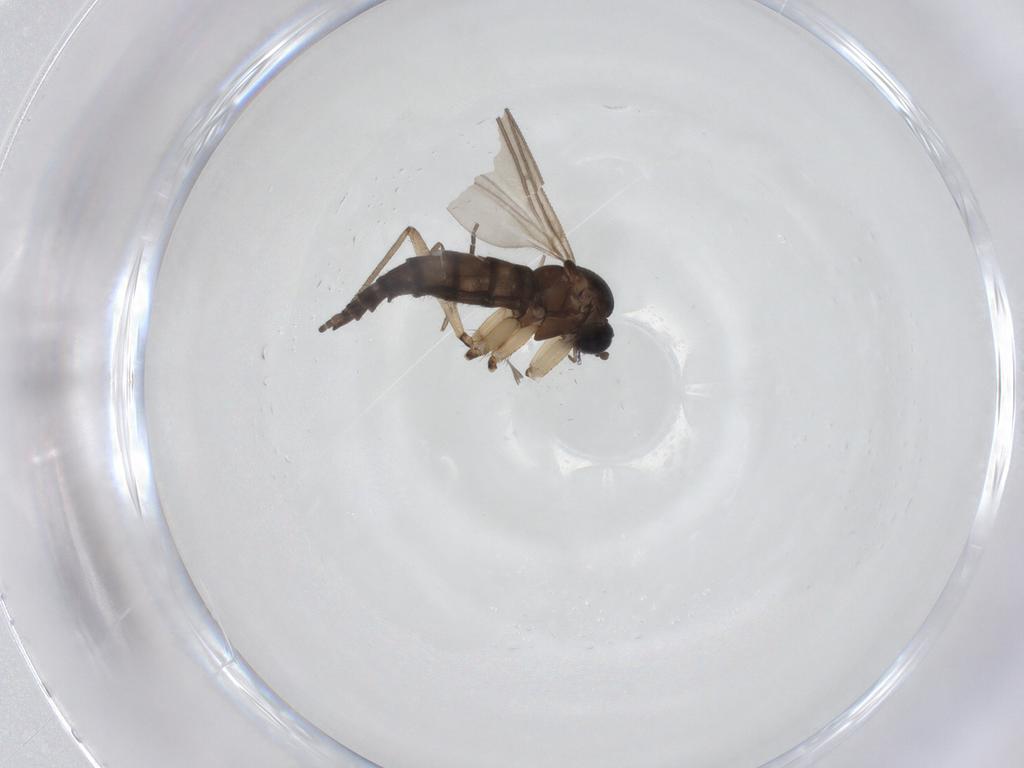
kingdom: Animalia
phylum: Arthropoda
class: Insecta
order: Diptera
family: Sciaridae
